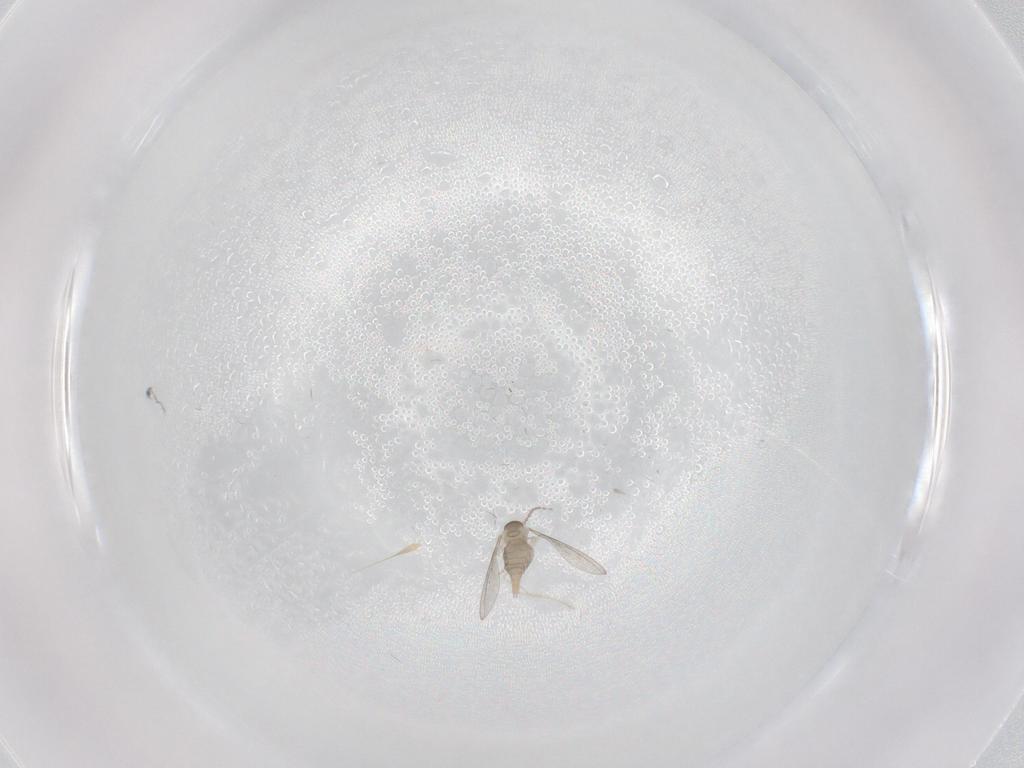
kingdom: Animalia
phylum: Arthropoda
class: Insecta
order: Diptera
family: Cecidomyiidae
